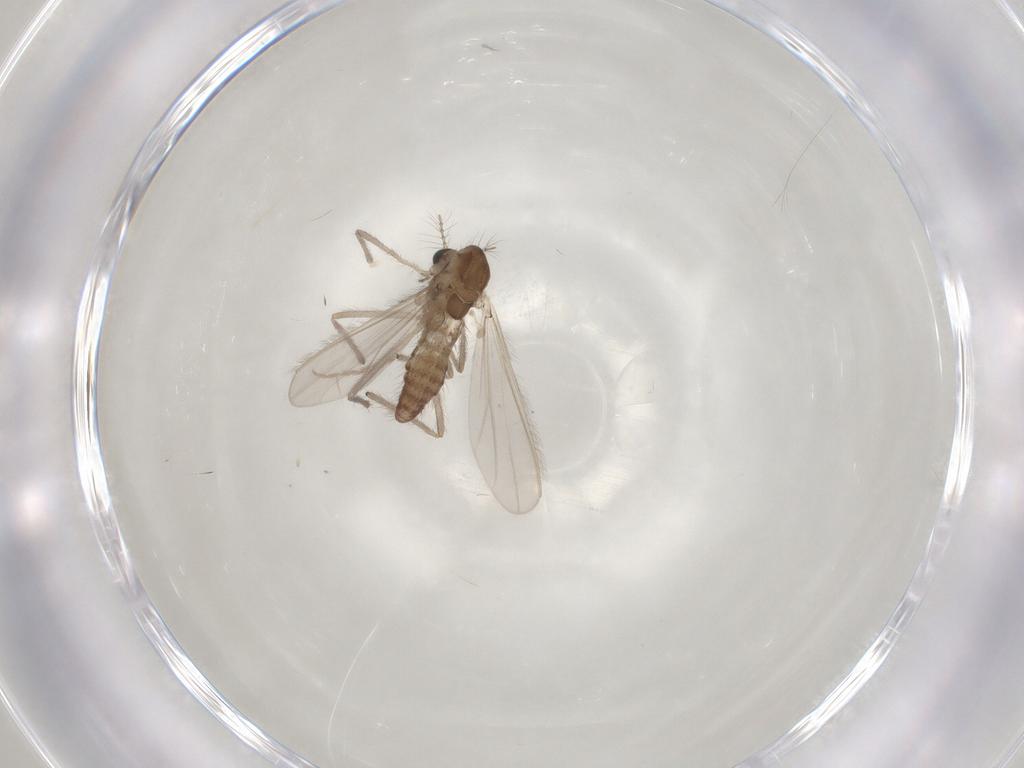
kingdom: Animalia
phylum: Arthropoda
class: Insecta
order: Diptera
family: Chironomidae
